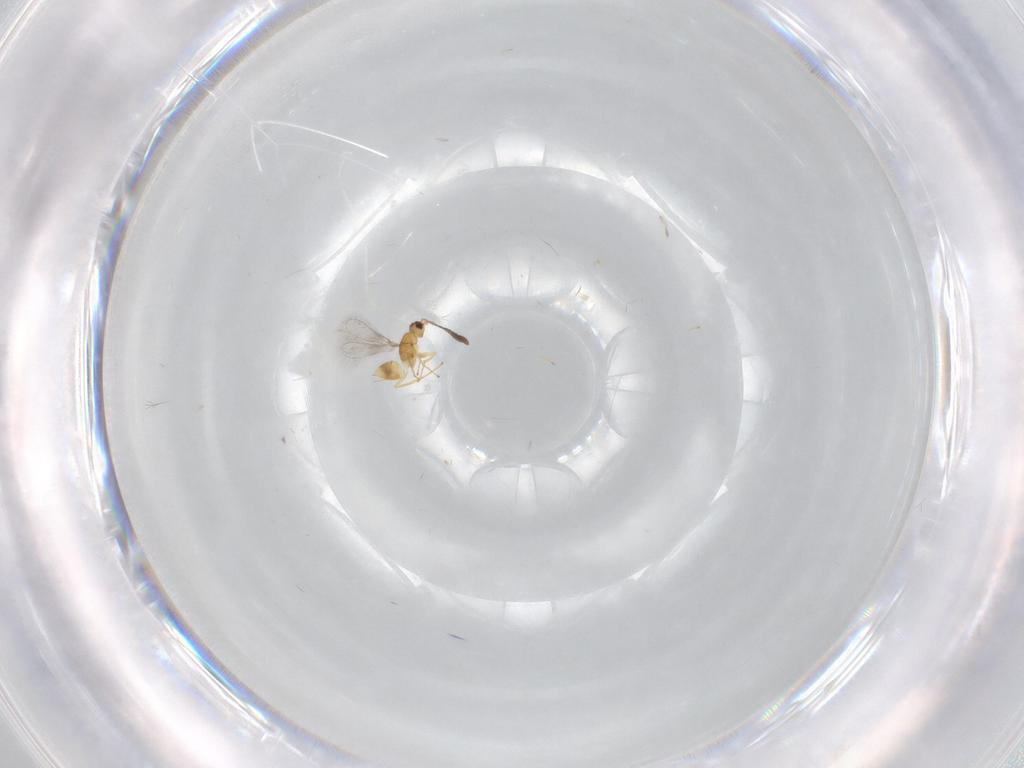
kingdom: Animalia
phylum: Arthropoda
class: Insecta
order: Hymenoptera
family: Mymaridae
